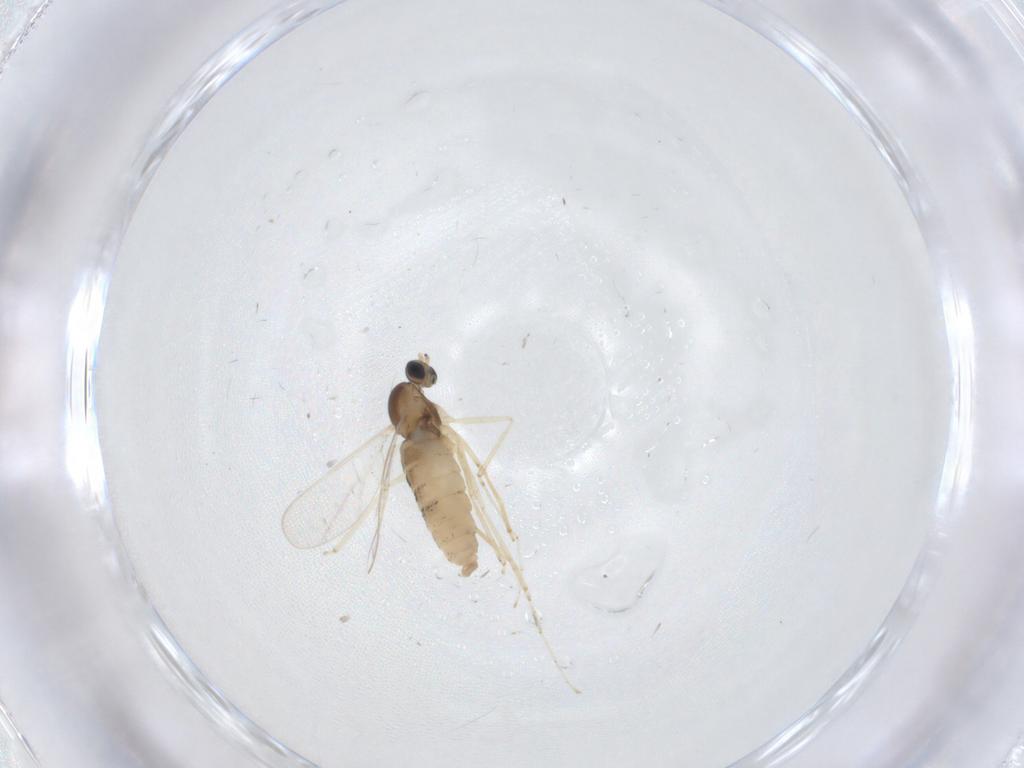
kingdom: Animalia
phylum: Arthropoda
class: Insecta
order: Diptera
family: Cecidomyiidae
